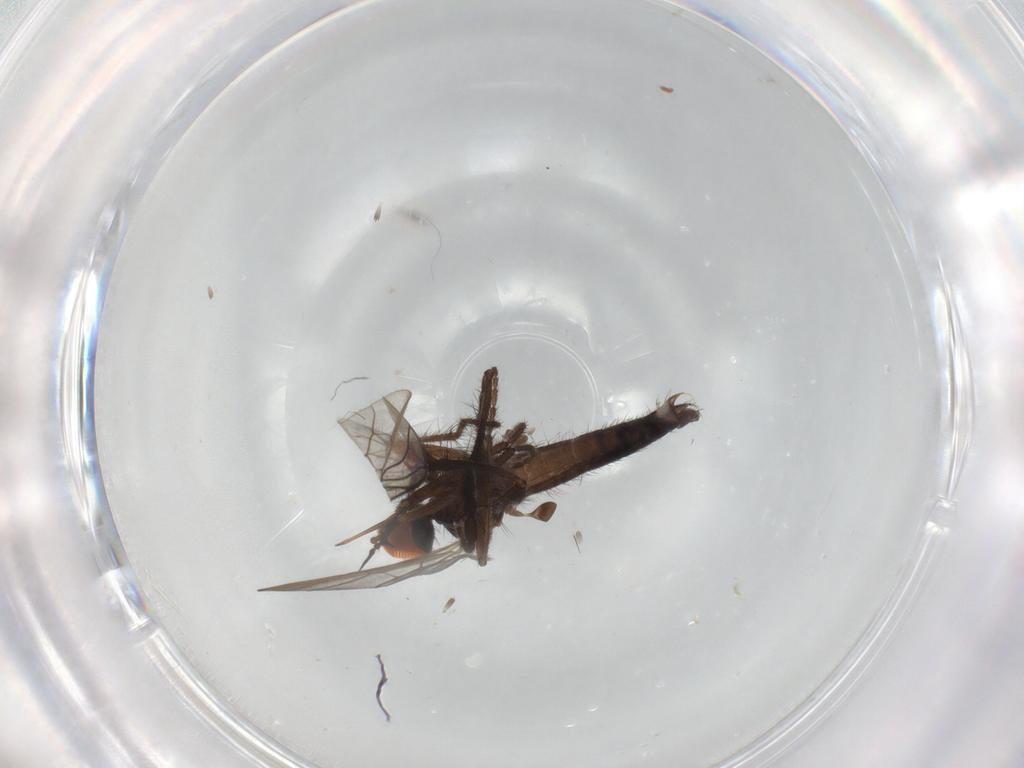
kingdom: Animalia
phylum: Arthropoda
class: Insecta
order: Diptera
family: Empididae
